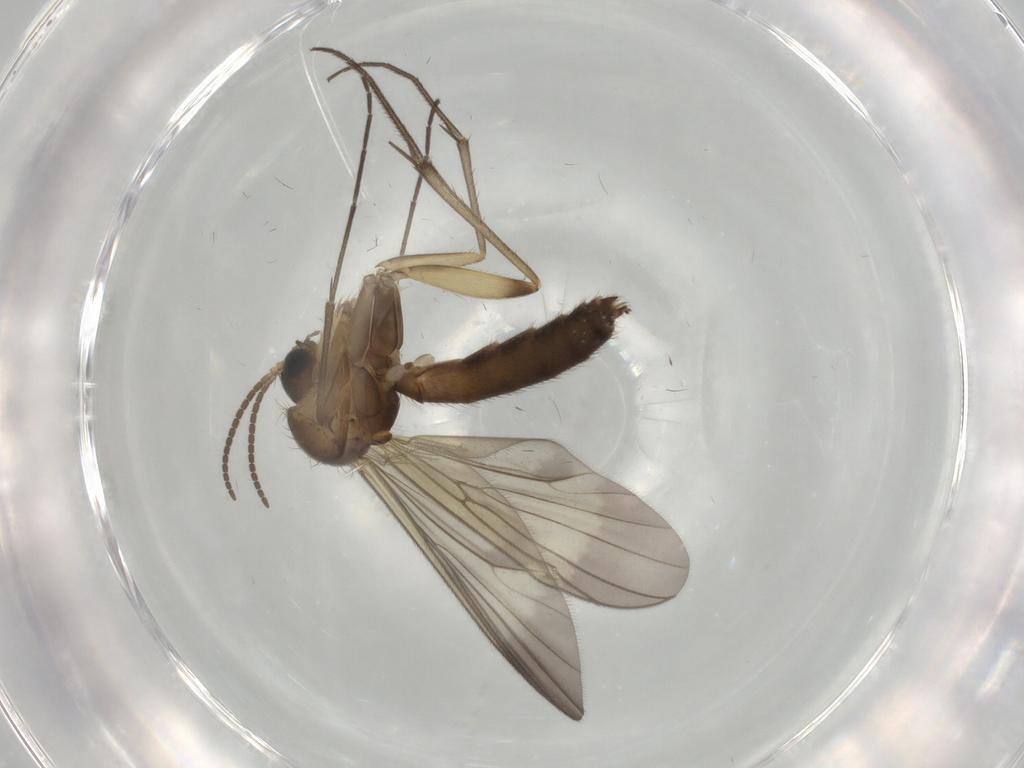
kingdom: Animalia
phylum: Arthropoda
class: Insecta
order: Diptera
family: Mycetophilidae
